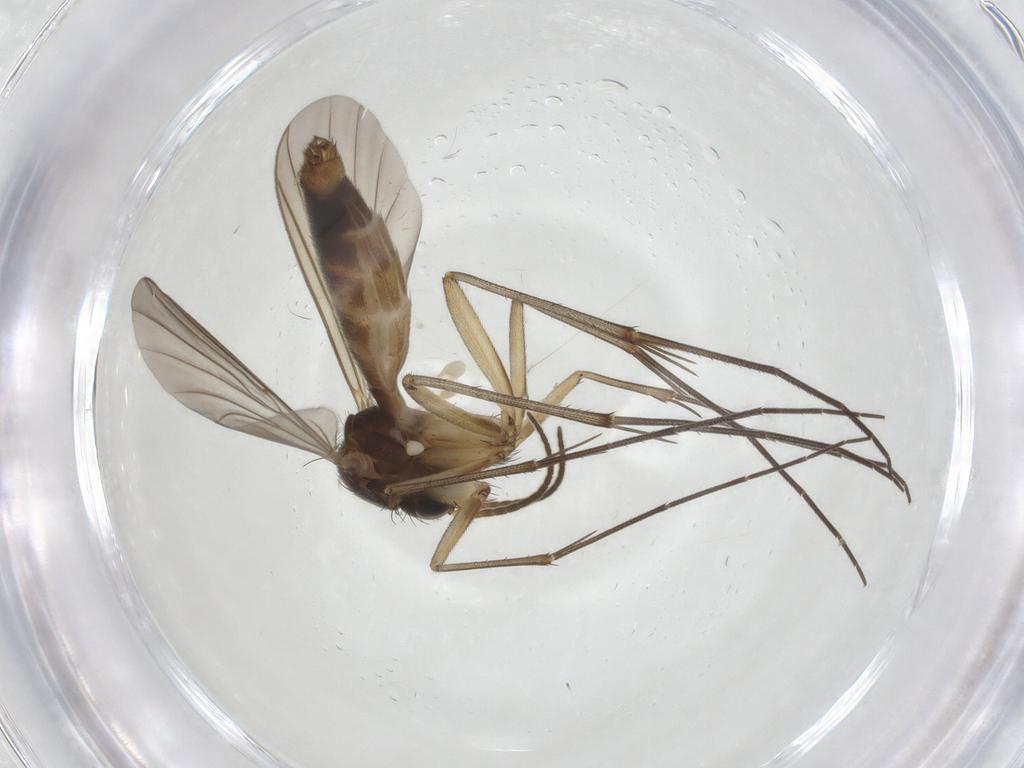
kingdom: Animalia
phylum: Arthropoda
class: Insecta
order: Diptera
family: Mycetophilidae
